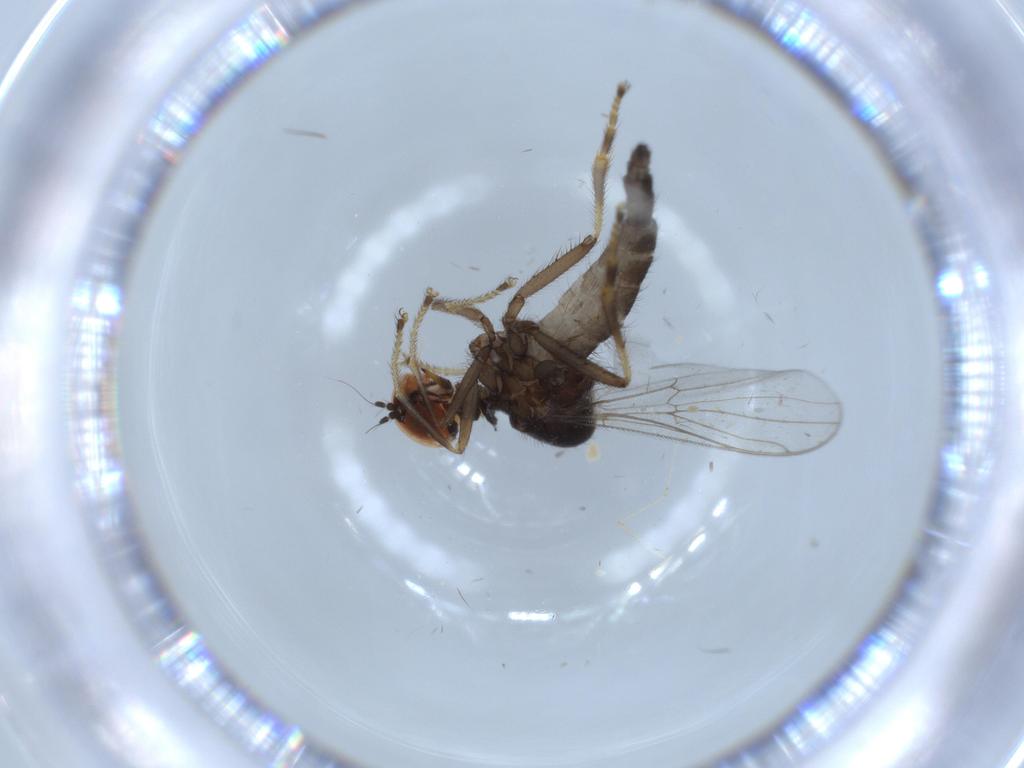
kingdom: Animalia
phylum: Arthropoda
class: Insecta
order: Diptera
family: Hybotidae
